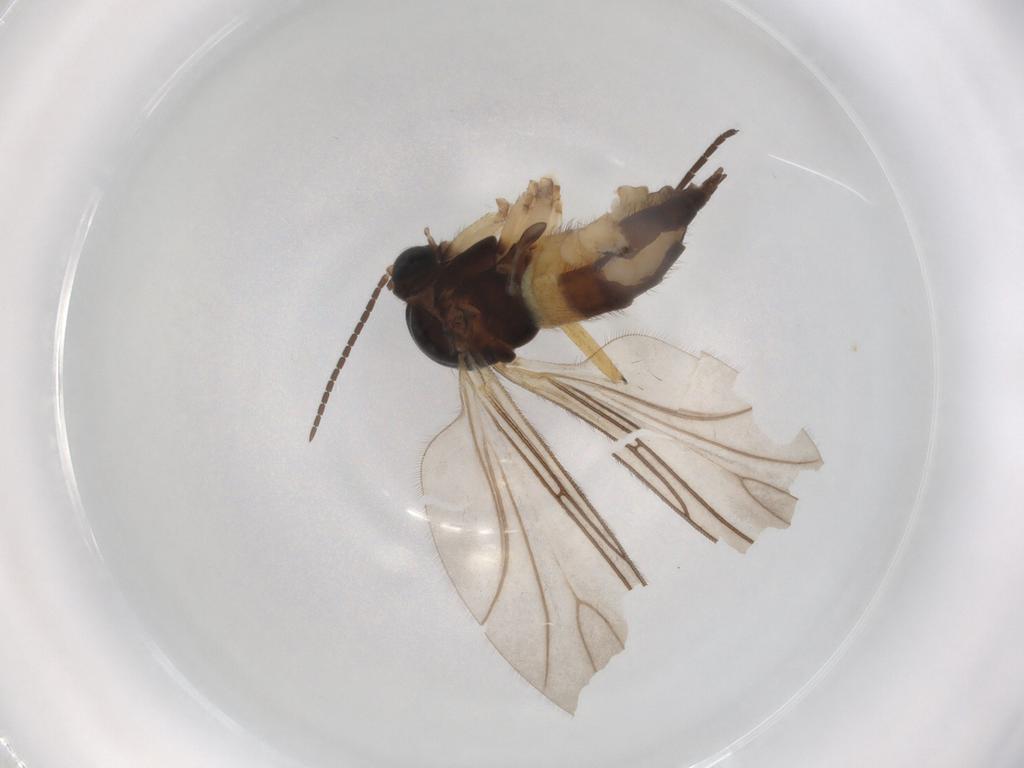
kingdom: Animalia
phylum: Arthropoda
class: Insecta
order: Diptera
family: Sciaridae
